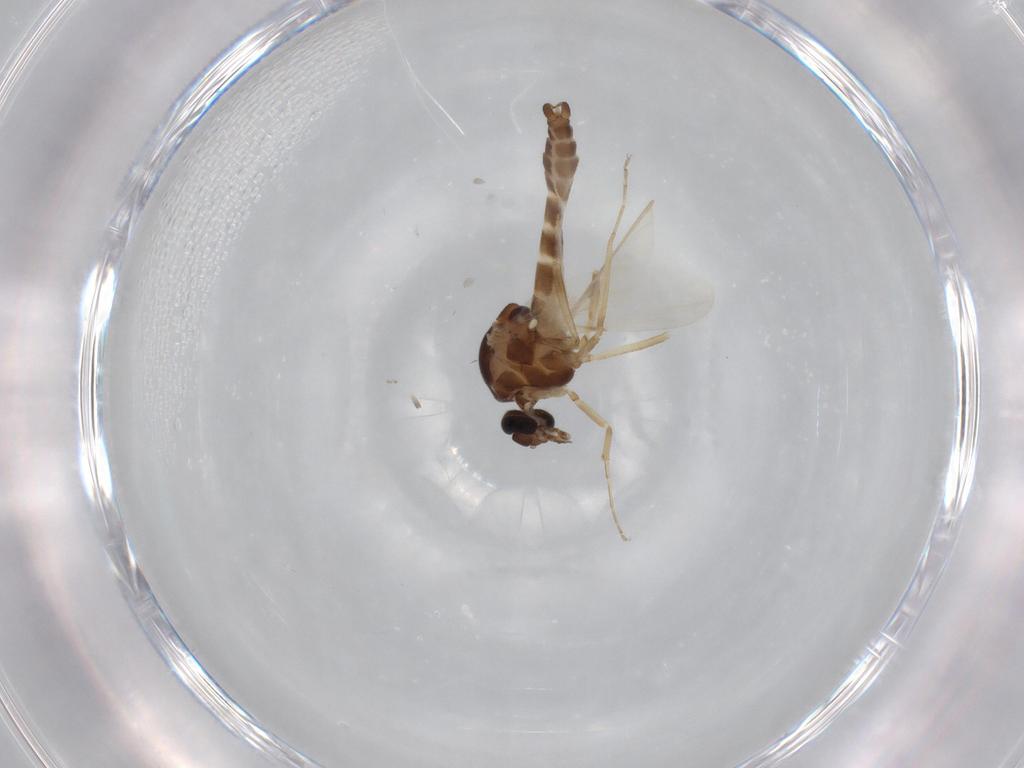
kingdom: Animalia
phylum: Arthropoda
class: Insecta
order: Diptera
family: Ceratopogonidae
